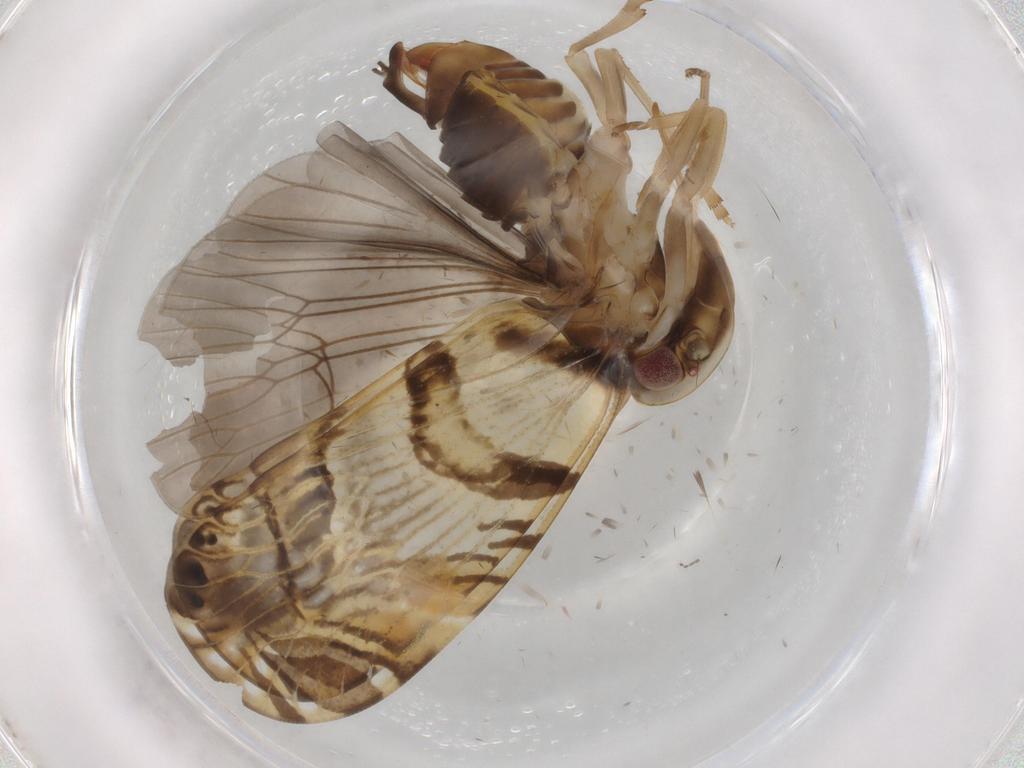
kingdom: Animalia
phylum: Arthropoda
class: Insecta
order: Hemiptera
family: Cixiidae
